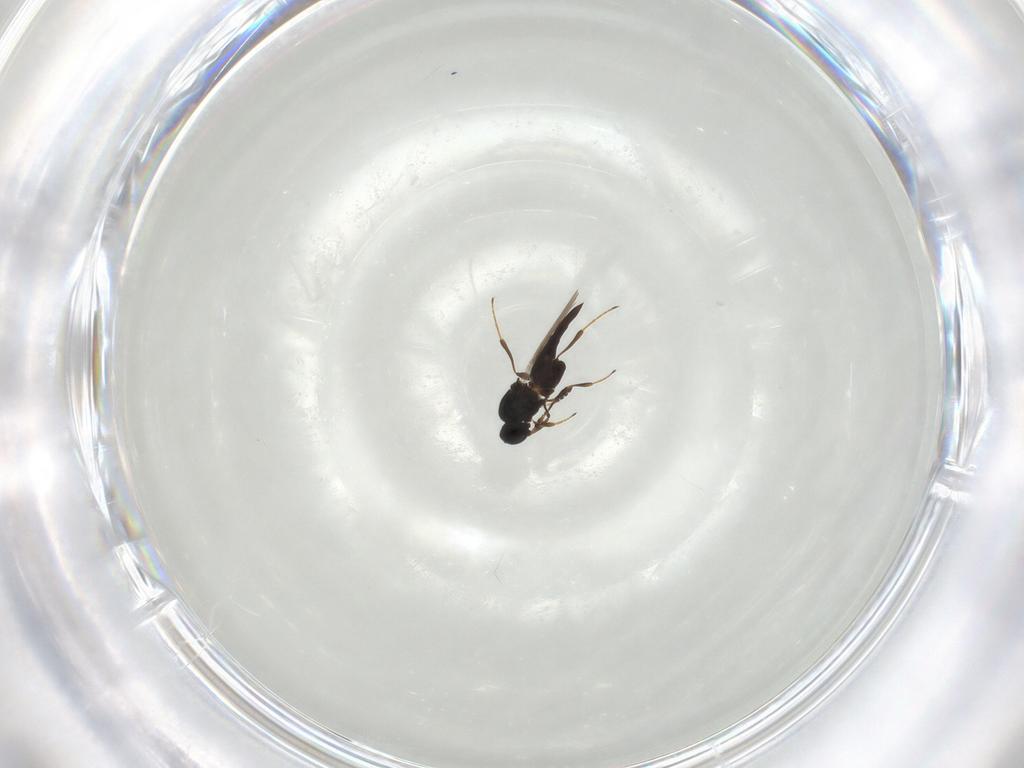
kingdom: Animalia
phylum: Arthropoda
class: Insecta
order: Hymenoptera
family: Platygastridae
